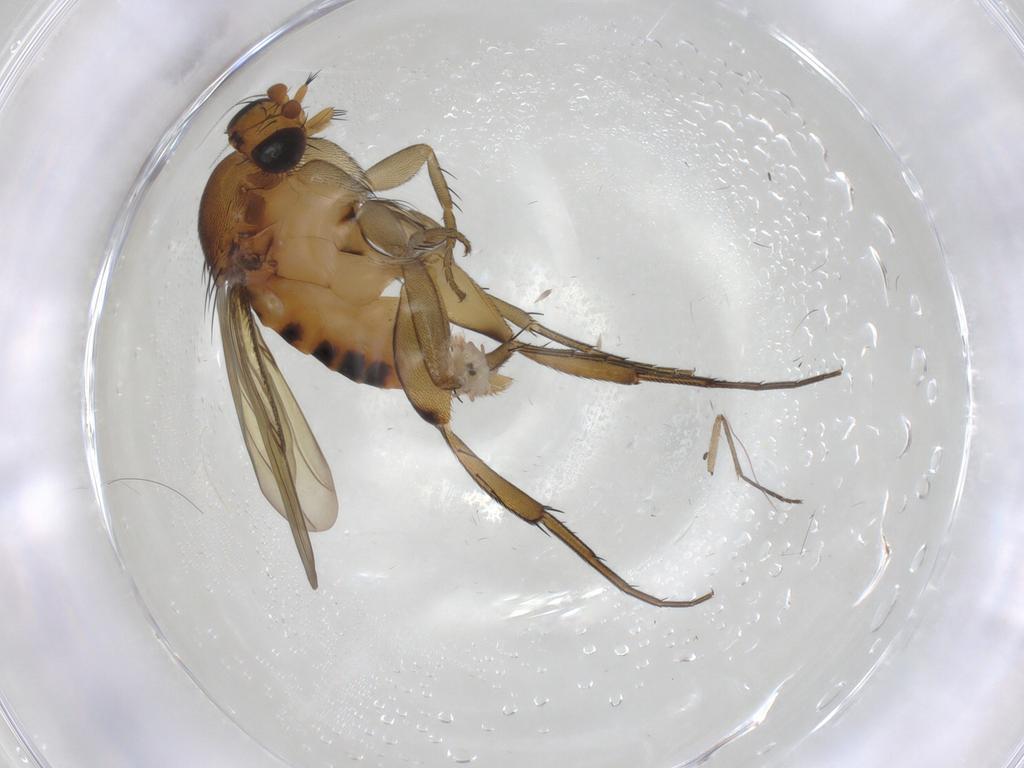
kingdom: Animalia
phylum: Arthropoda
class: Insecta
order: Diptera
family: Phoridae
